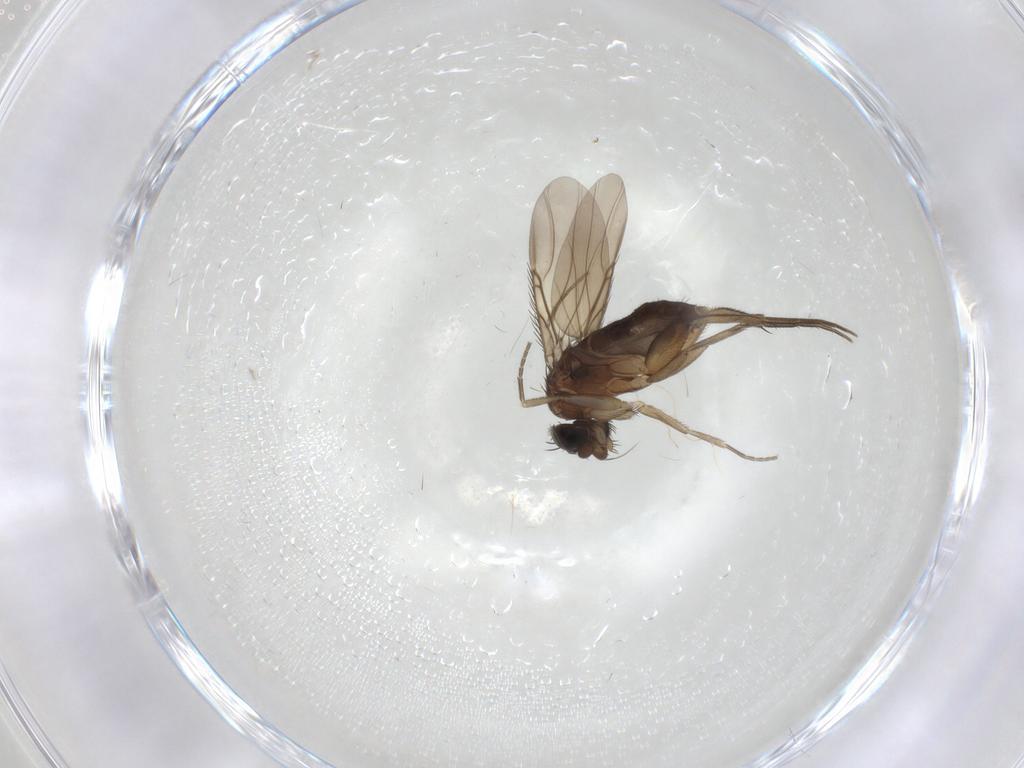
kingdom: Animalia
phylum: Arthropoda
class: Insecta
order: Diptera
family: Phoridae
